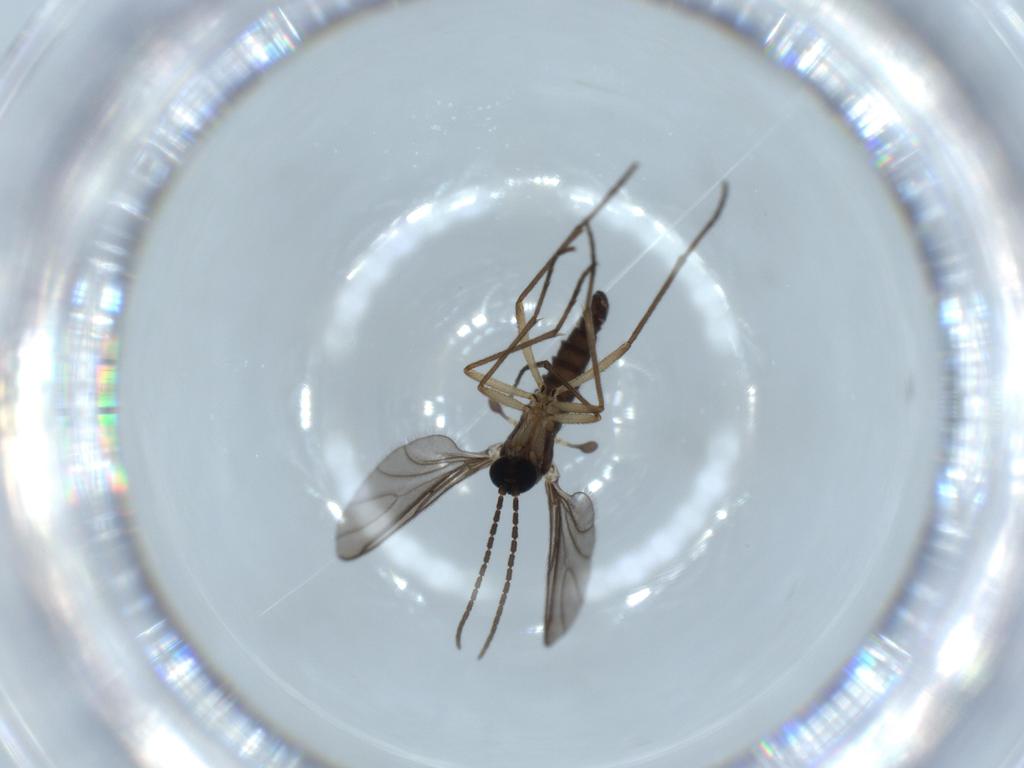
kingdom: Animalia
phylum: Arthropoda
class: Insecta
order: Diptera
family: Sciaridae
